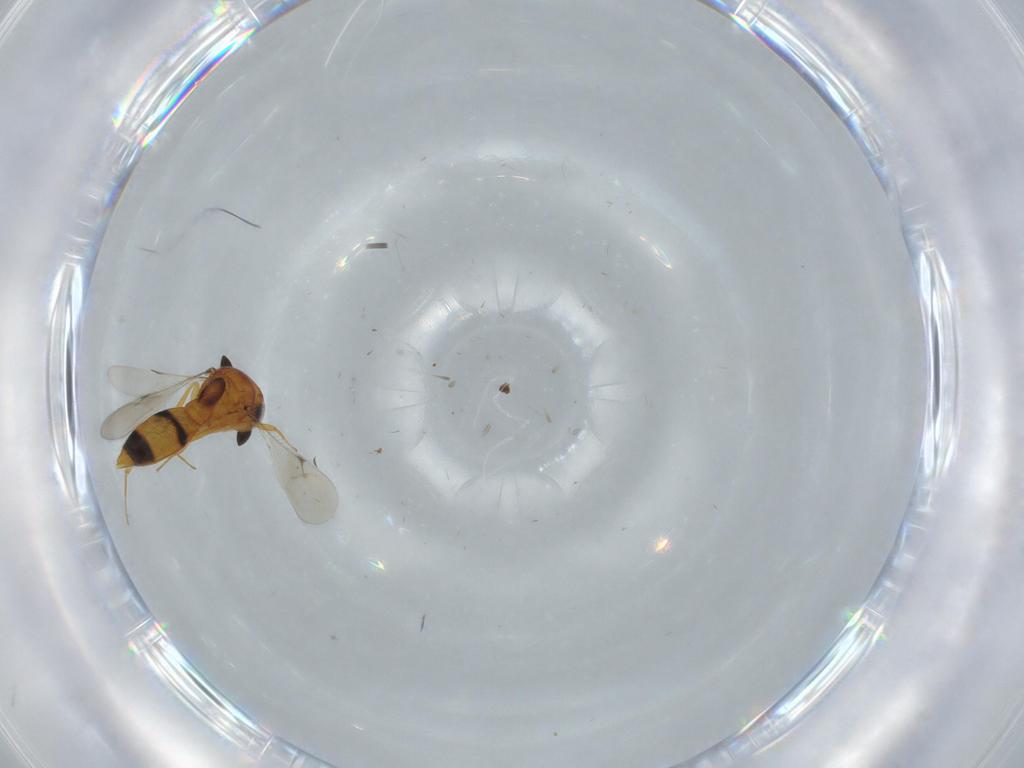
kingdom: Animalia
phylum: Arthropoda
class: Insecta
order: Hymenoptera
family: Scelionidae
